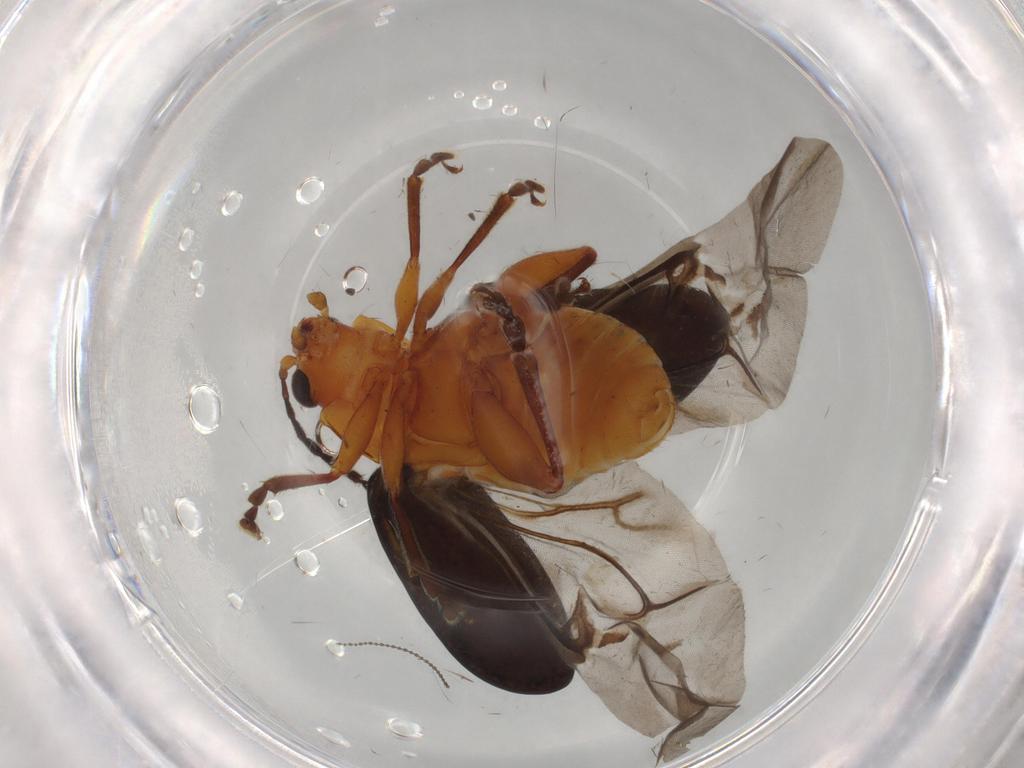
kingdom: Animalia
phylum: Arthropoda
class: Insecta
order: Coleoptera
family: Chrysomelidae
